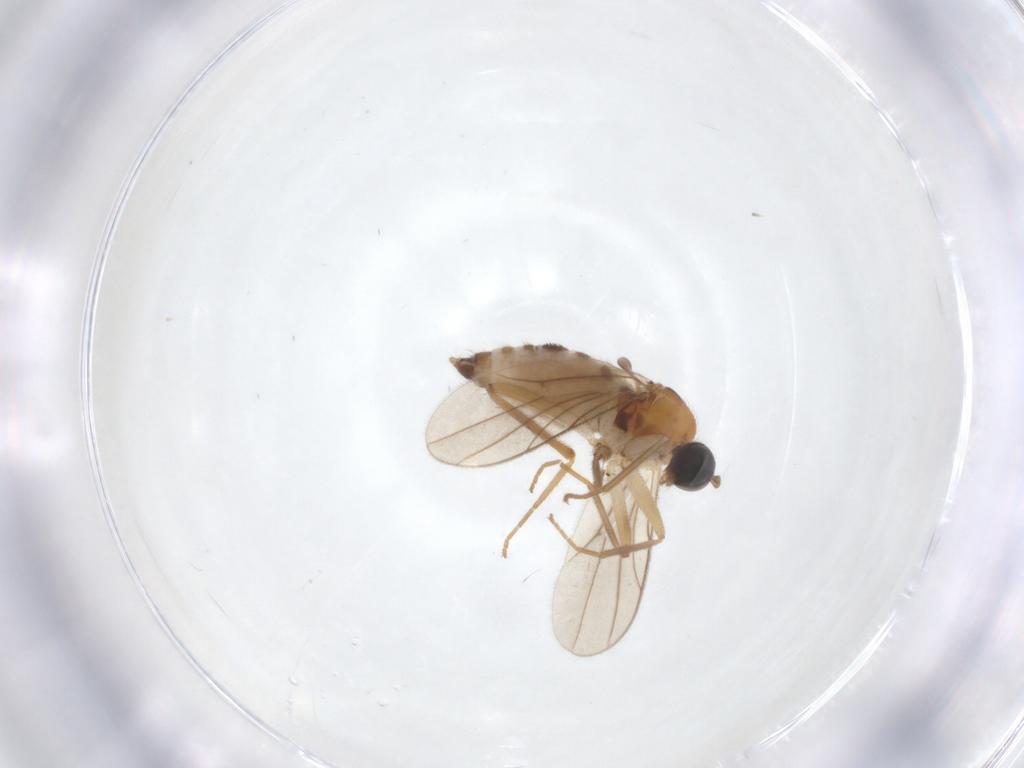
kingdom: Animalia
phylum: Arthropoda
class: Insecta
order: Diptera
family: Hybotidae
